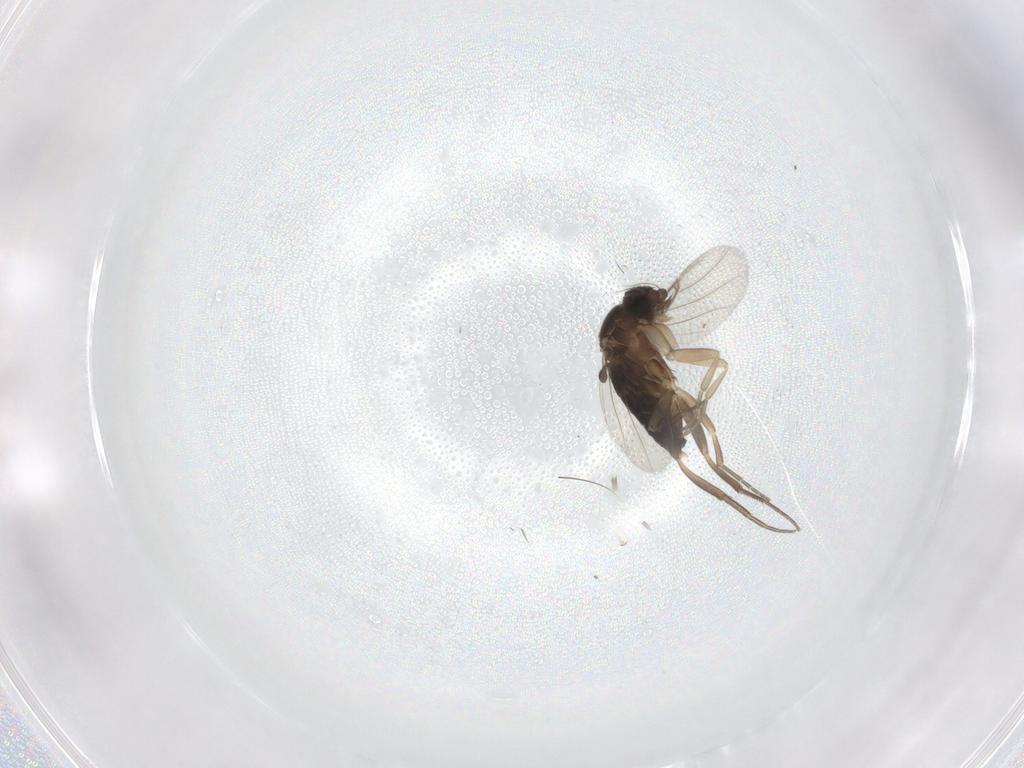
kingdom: Animalia
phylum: Arthropoda
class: Insecta
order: Diptera
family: Phoridae
